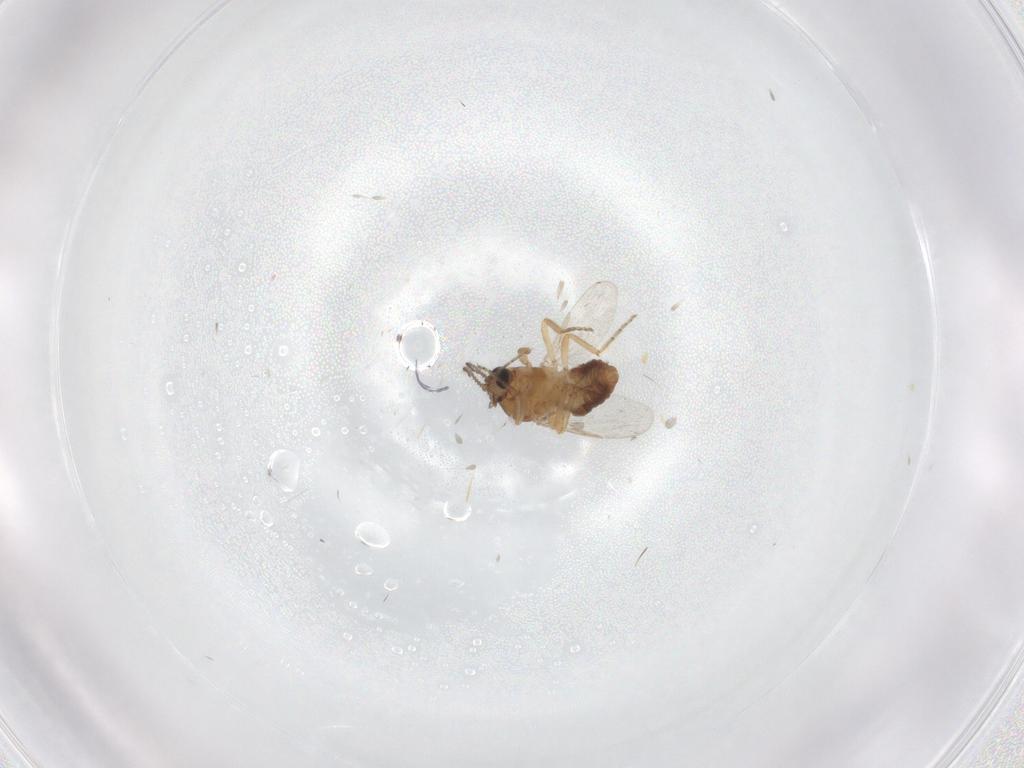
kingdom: Animalia
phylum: Arthropoda
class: Insecta
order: Diptera
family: Ceratopogonidae
